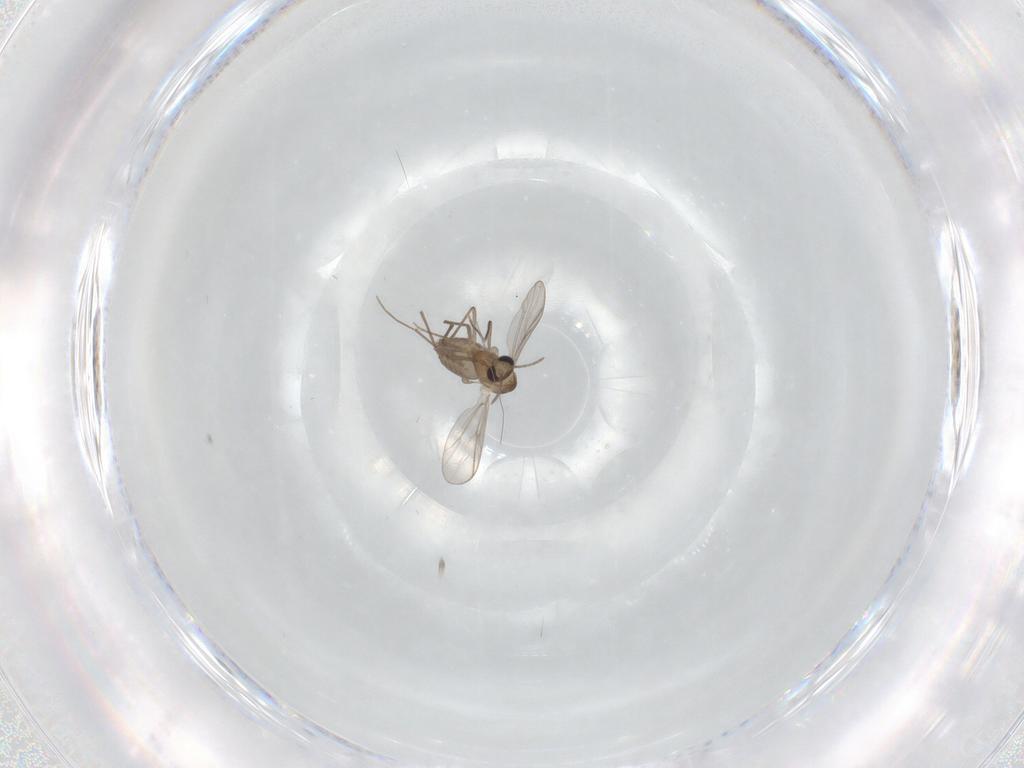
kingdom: Animalia
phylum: Arthropoda
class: Insecta
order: Diptera
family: Chironomidae
